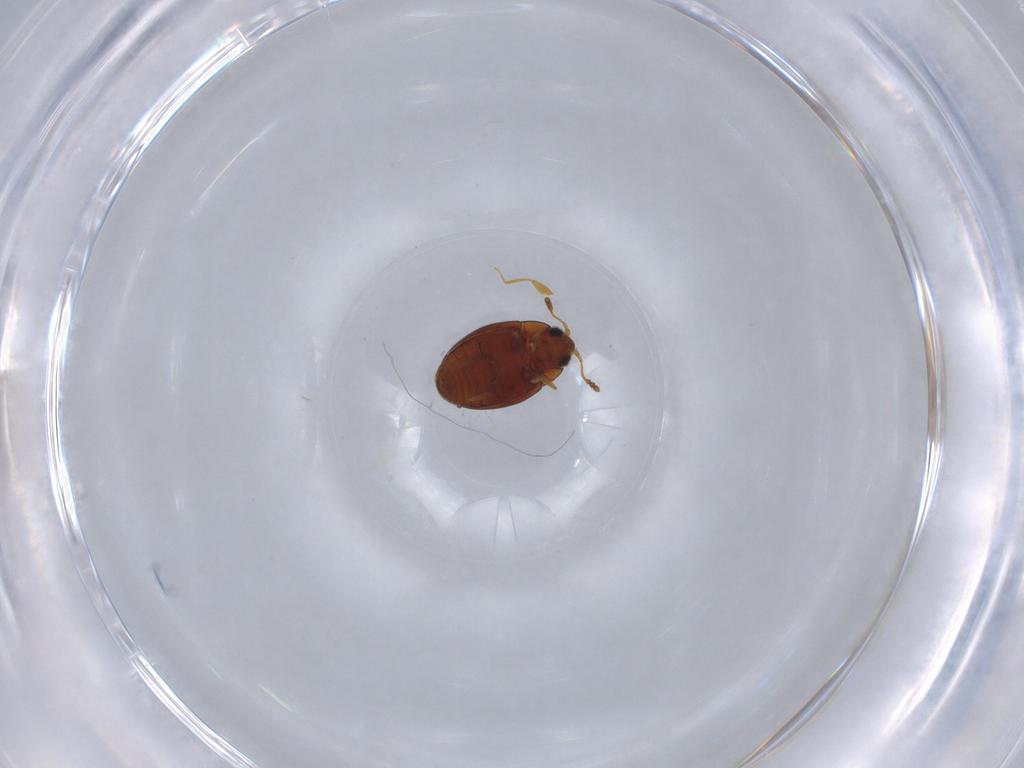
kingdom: Animalia
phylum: Arthropoda
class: Insecta
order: Coleoptera
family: Cryptophagidae
